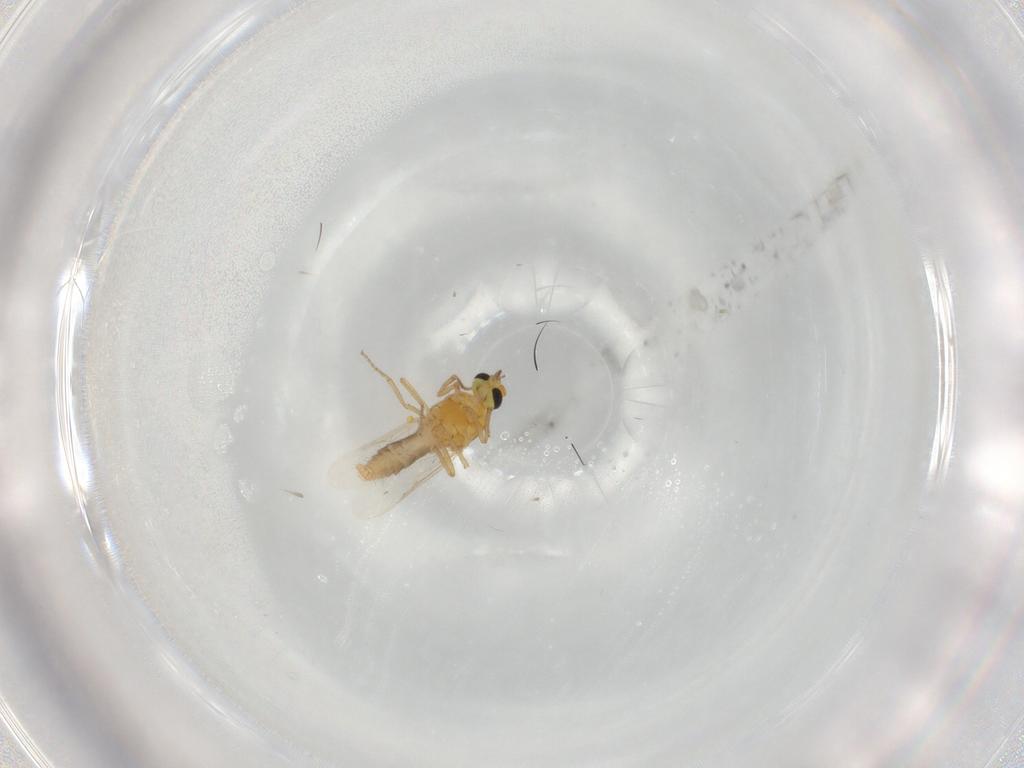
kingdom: Animalia
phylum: Arthropoda
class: Insecta
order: Diptera
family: Ceratopogonidae
